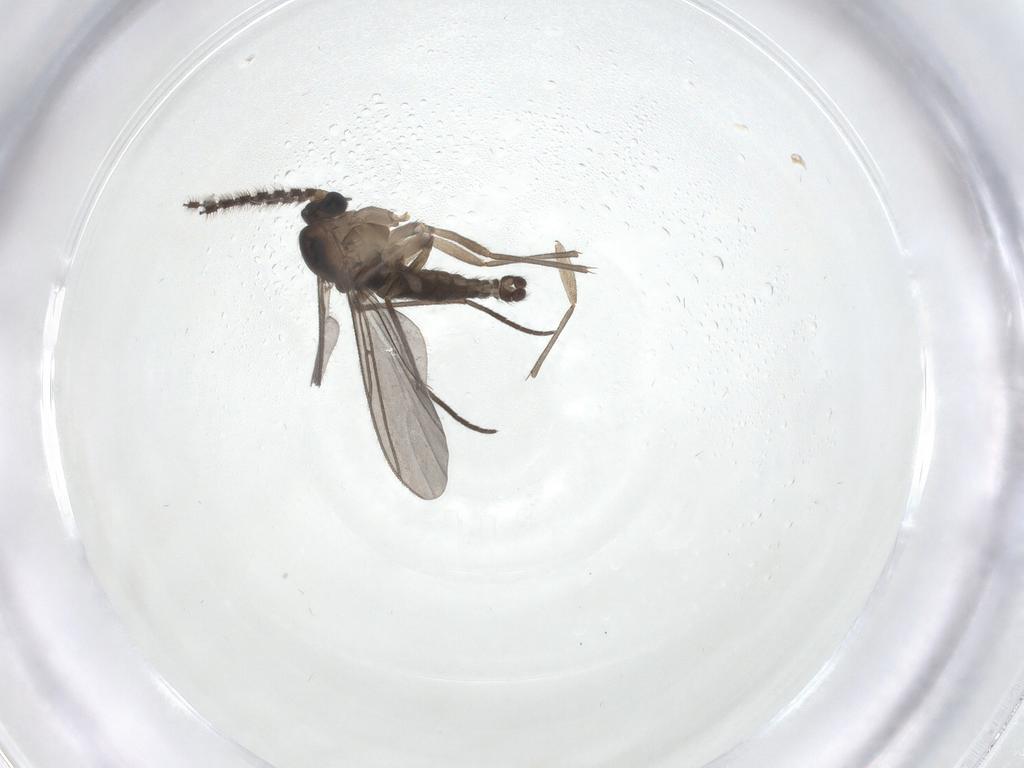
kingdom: Animalia
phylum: Arthropoda
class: Insecta
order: Diptera
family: Sciaridae
